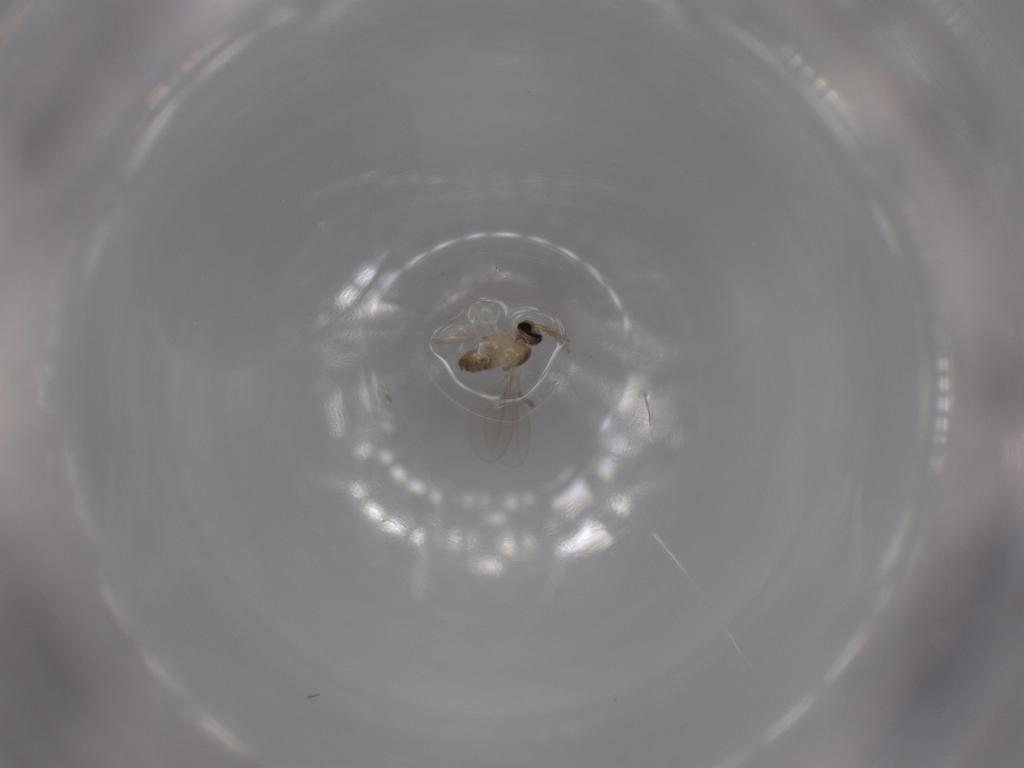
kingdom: Animalia
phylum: Arthropoda
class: Insecta
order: Diptera
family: Cecidomyiidae
